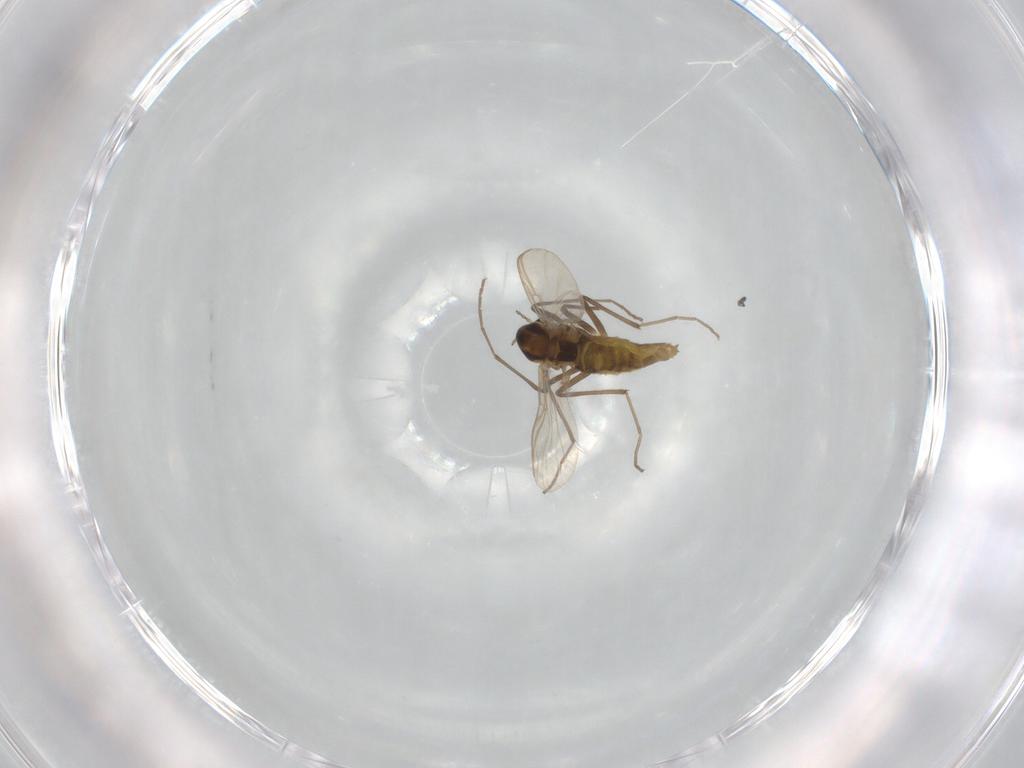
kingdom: Animalia
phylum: Arthropoda
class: Insecta
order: Diptera
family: Chironomidae
